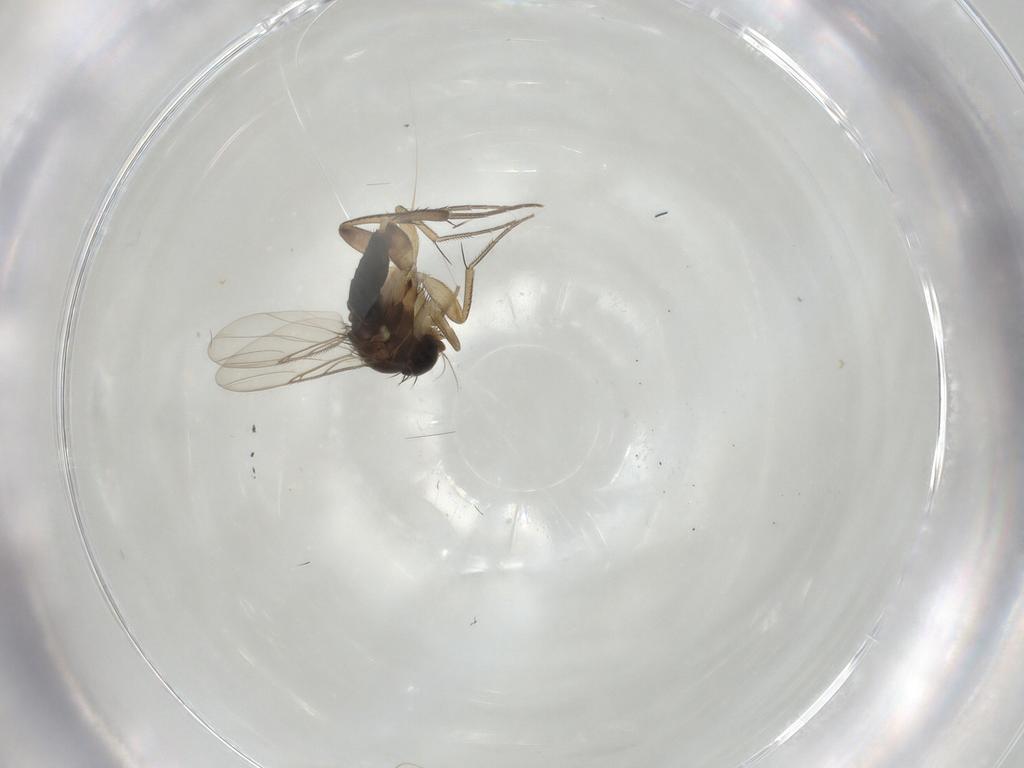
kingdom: Animalia
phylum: Arthropoda
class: Insecta
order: Diptera
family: Phoridae
